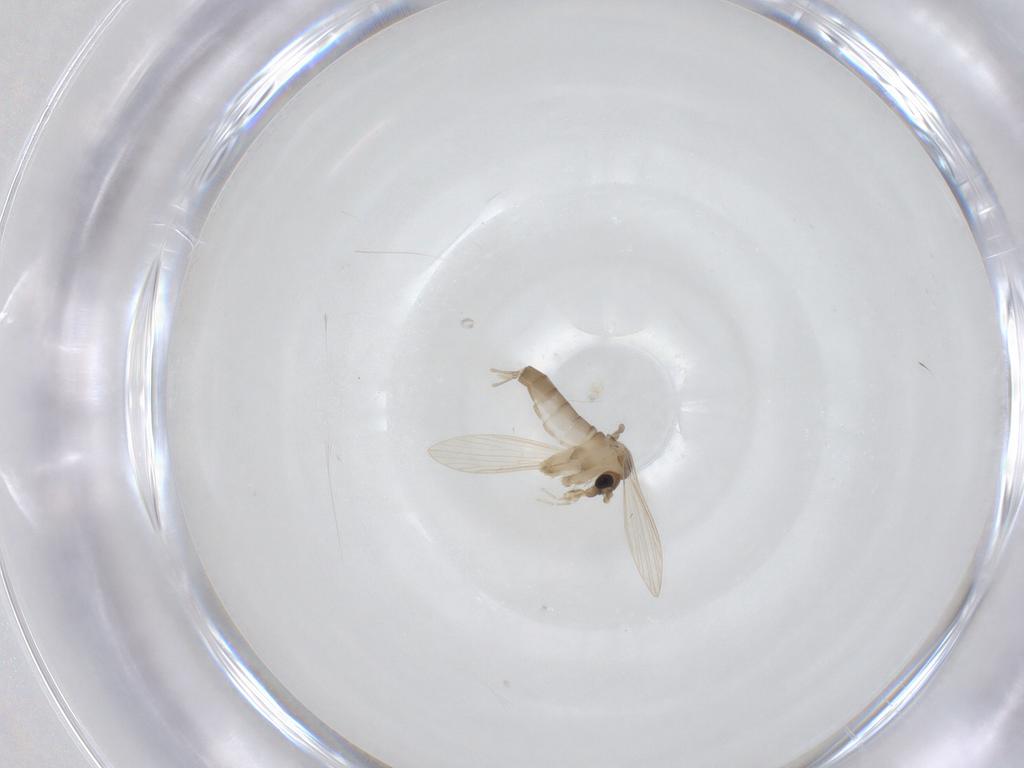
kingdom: Animalia
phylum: Arthropoda
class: Insecta
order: Diptera
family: Psychodidae
